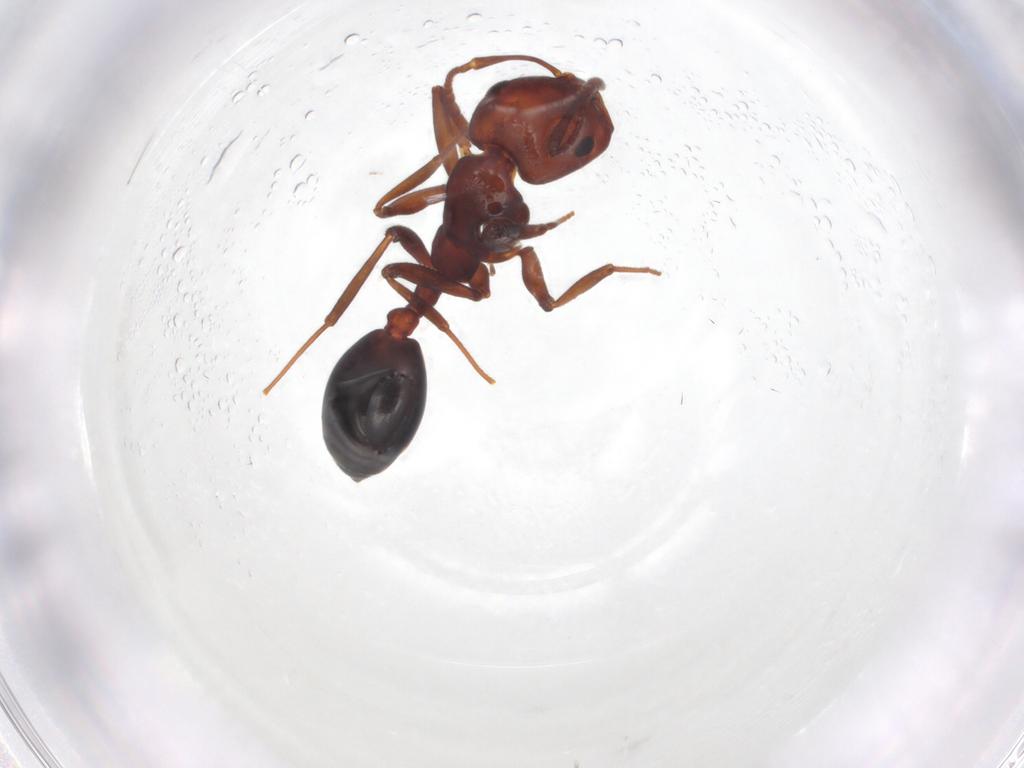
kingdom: Animalia
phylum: Arthropoda
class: Insecta
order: Hymenoptera
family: Formicidae
